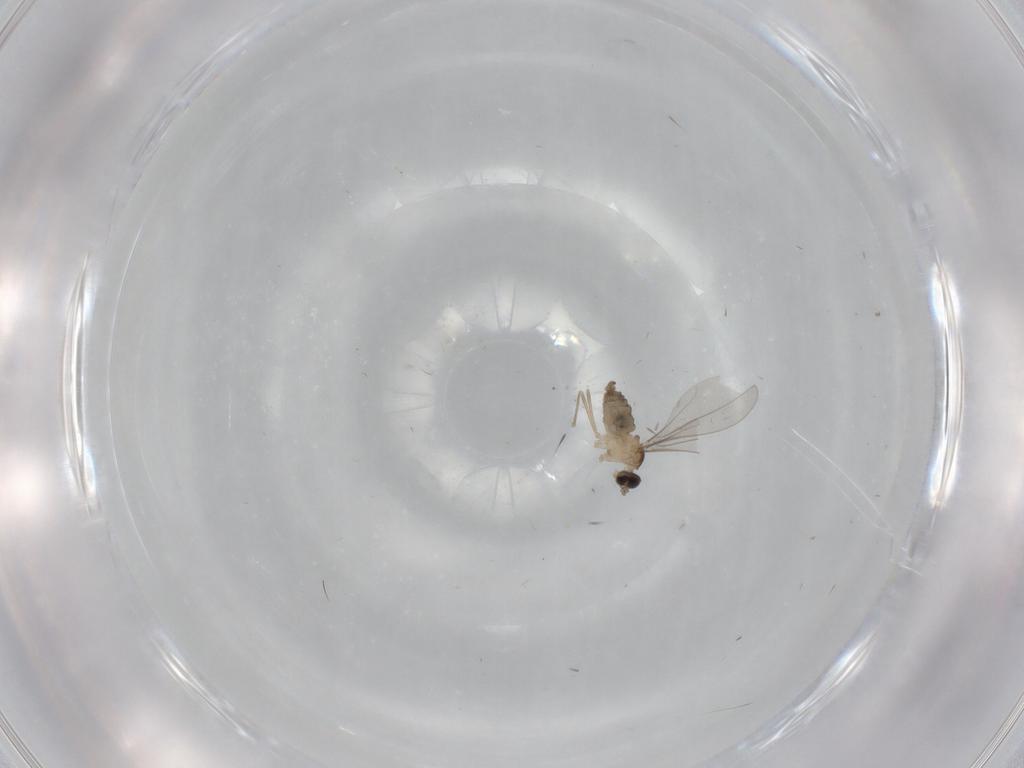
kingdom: Animalia
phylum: Arthropoda
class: Insecta
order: Diptera
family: Cecidomyiidae
